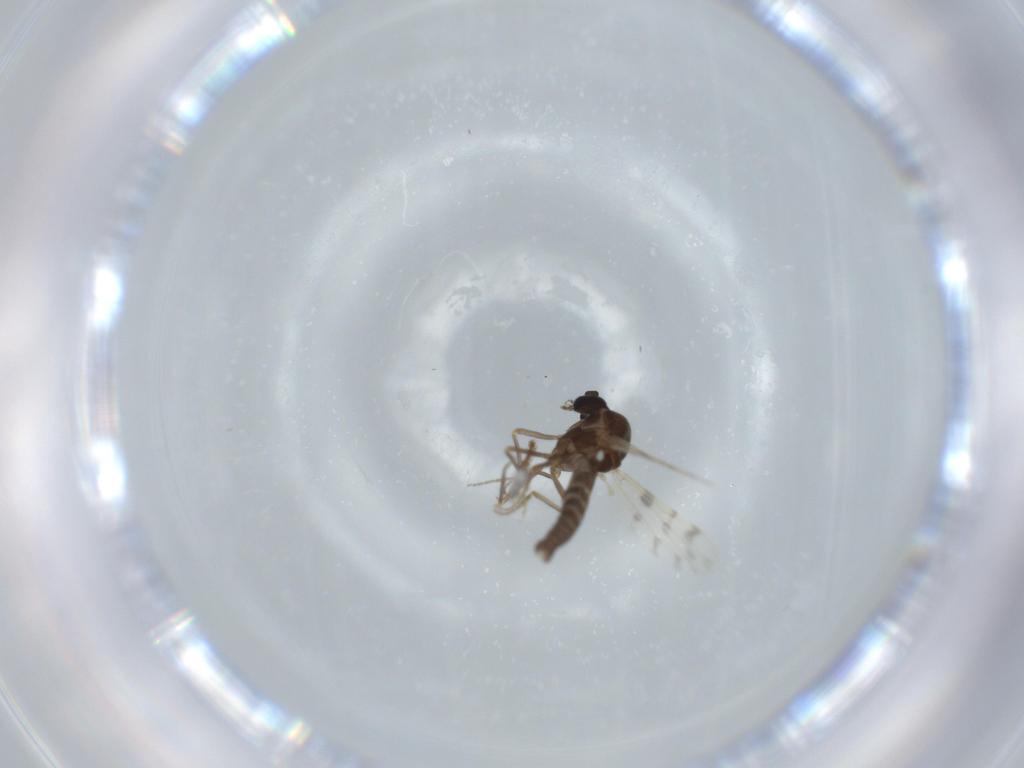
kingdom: Animalia
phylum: Arthropoda
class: Insecta
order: Diptera
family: Ceratopogonidae
